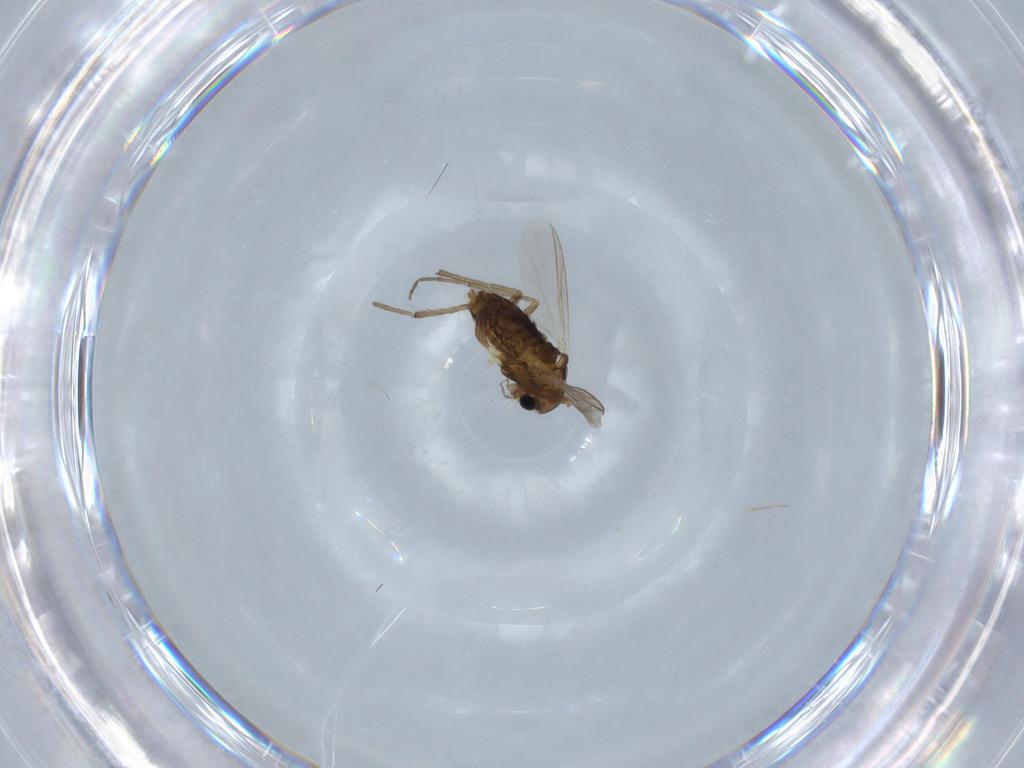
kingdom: Animalia
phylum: Arthropoda
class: Insecta
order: Diptera
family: Chironomidae
